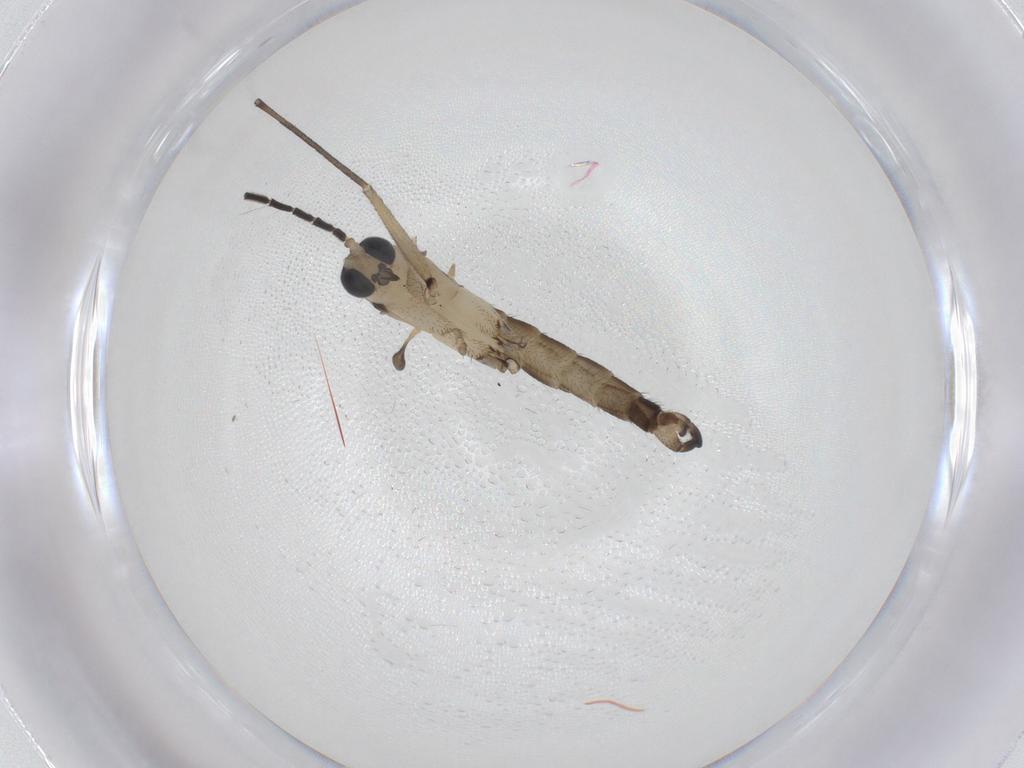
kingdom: Animalia
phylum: Arthropoda
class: Insecta
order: Diptera
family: Sciaridae
